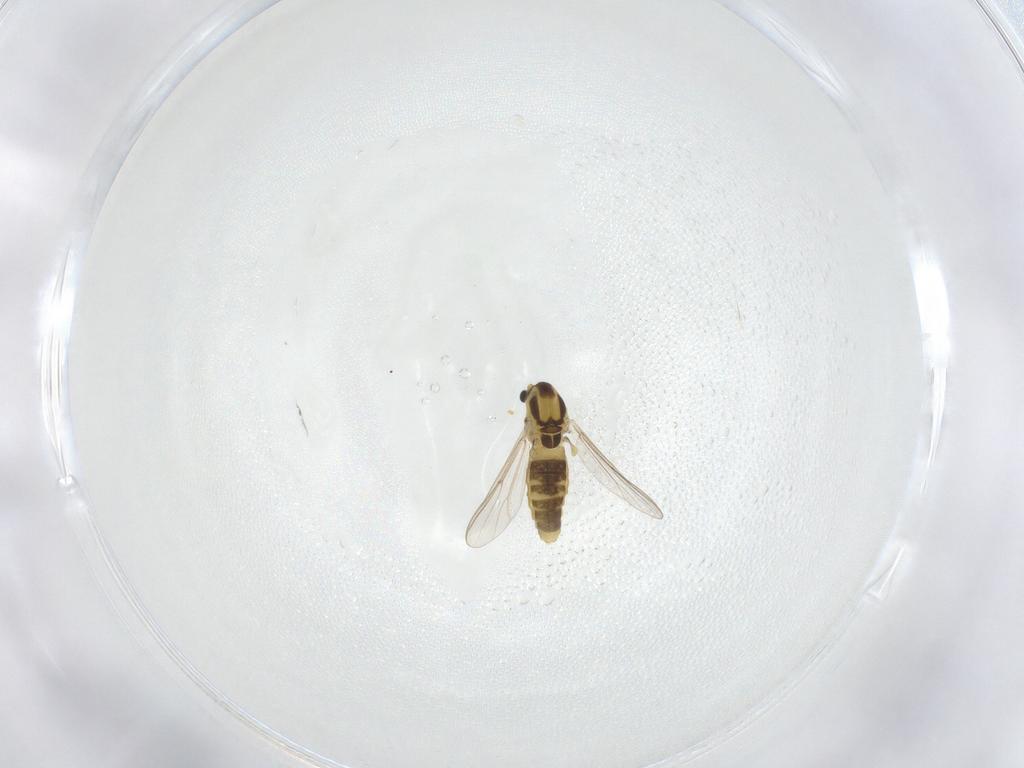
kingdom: Animalia
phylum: Arthropoda
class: Insecta
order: Diptera
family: Chironomidae
